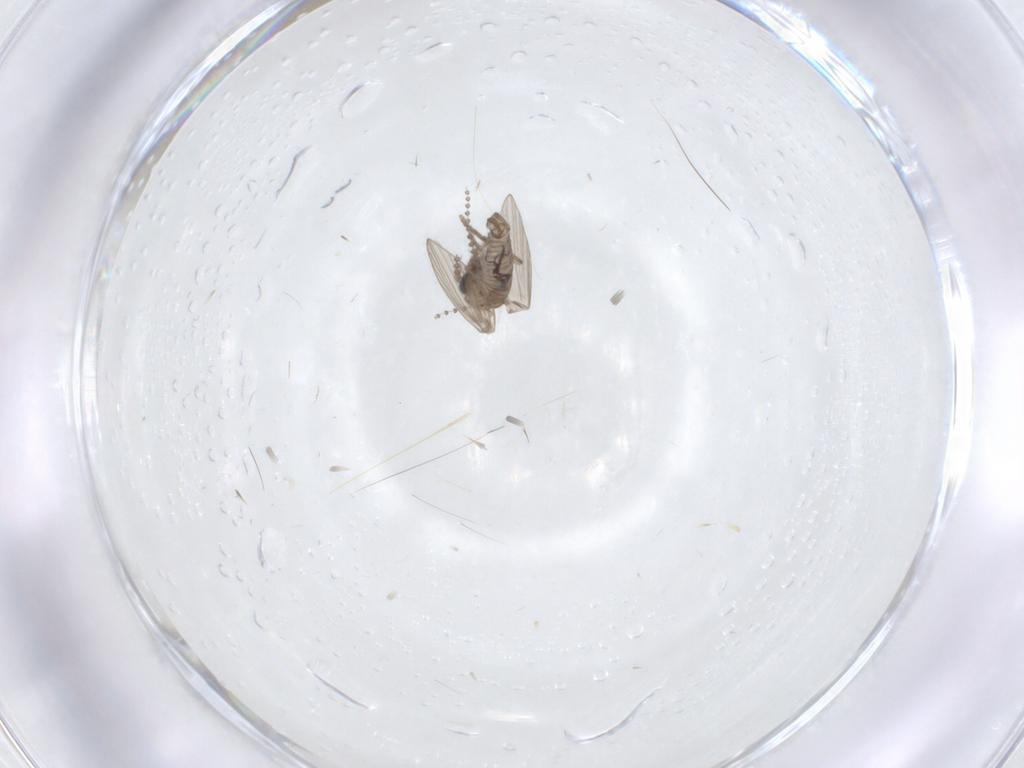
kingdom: Animalia
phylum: Arthropoda
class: Insecta
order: Diptera
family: Psychodidae
